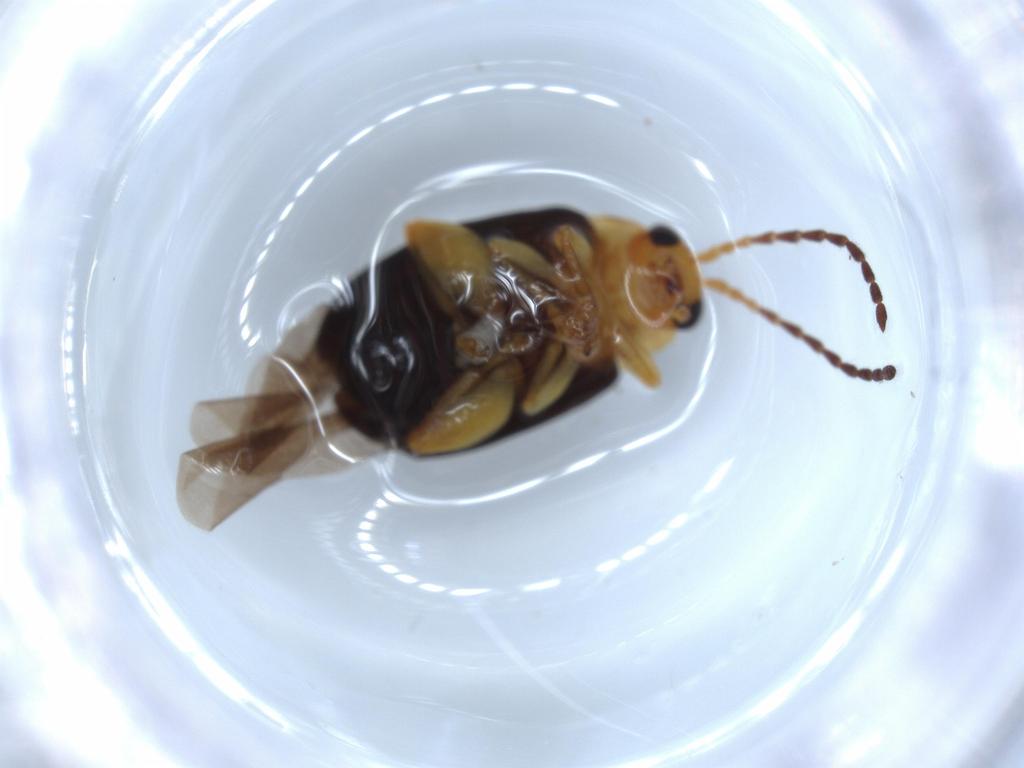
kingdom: Animalia
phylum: Arthropoda
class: Insecta
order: Coleoptera
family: Chrysomelidae
